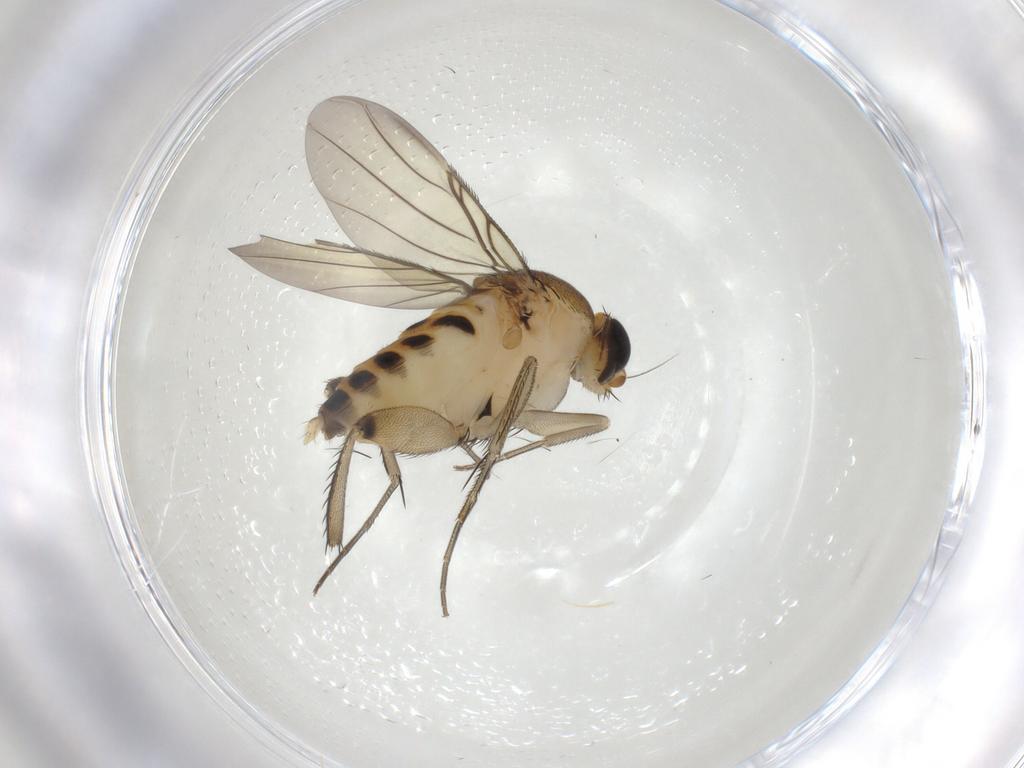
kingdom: Animalia
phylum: Arthropoda
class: Insecta
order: Diptera
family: Phoridae
